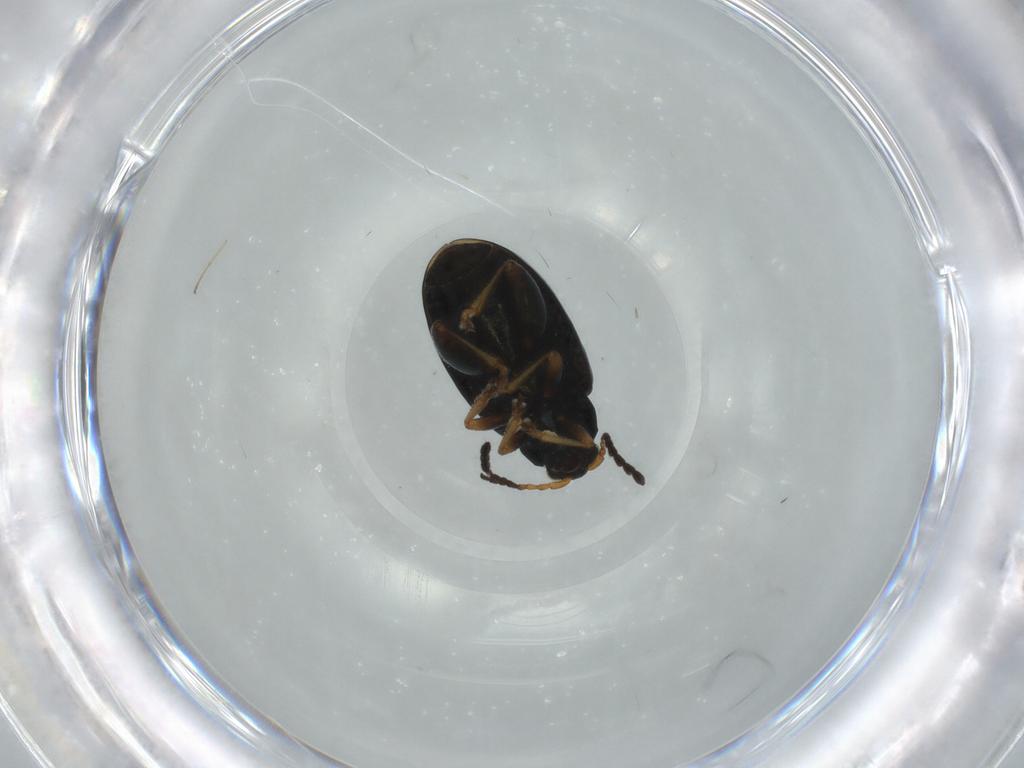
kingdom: Animalia
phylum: Arthropoda
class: Insecta
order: Coleoptera
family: Chrysomelidae
